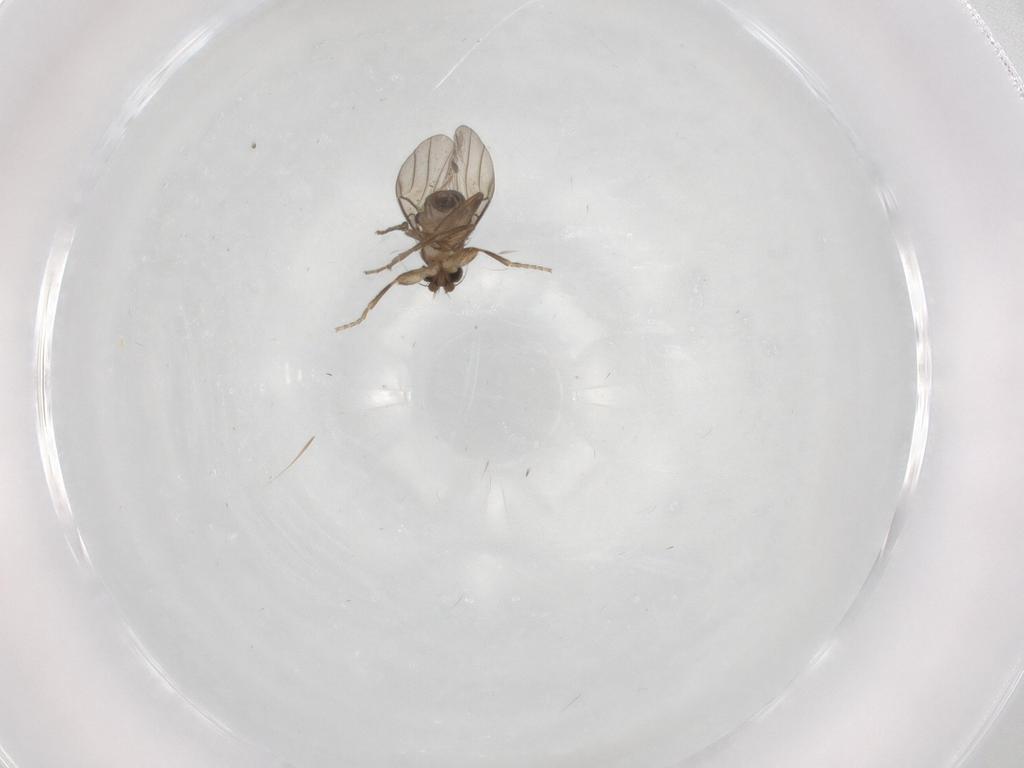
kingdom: Animalia
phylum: Arthropoda
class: Insecta
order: Diptera
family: Phoridae
